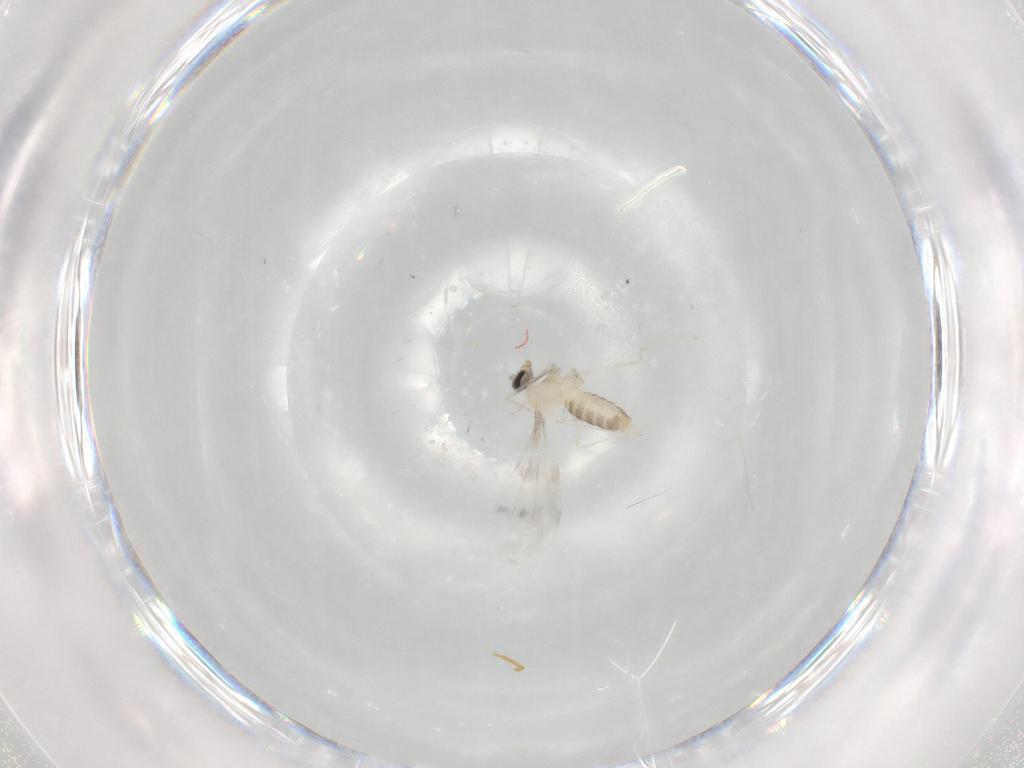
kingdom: Animalia
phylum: Arthropoda
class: Insecta
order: Diptera
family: Cecidomyiidae
